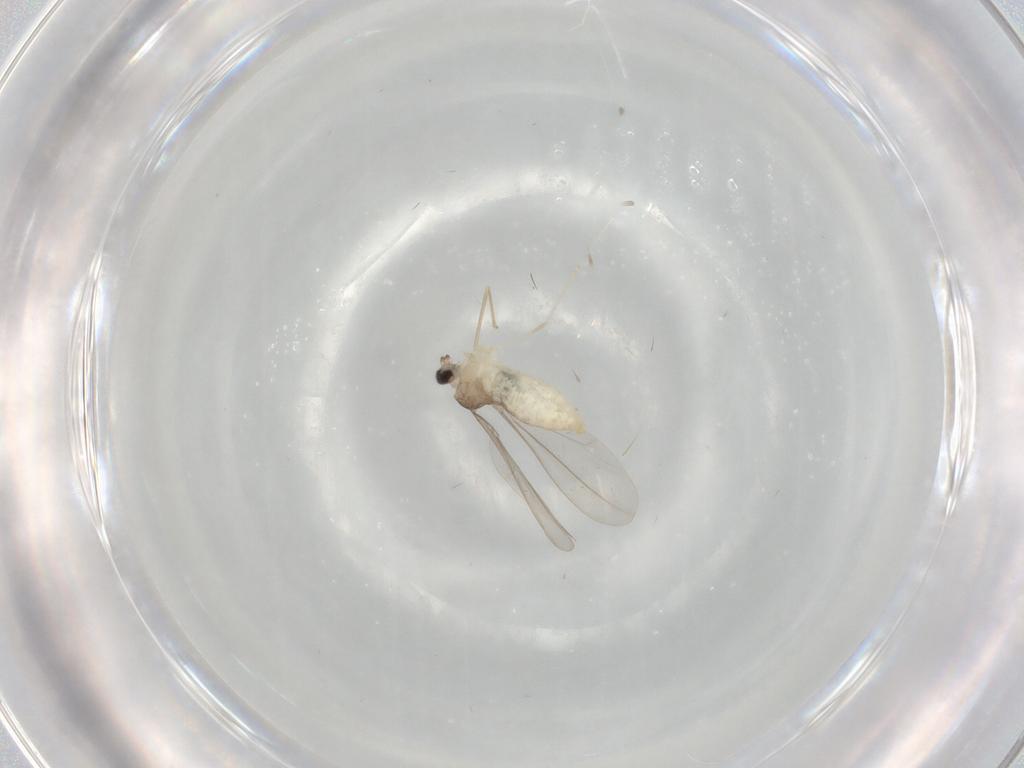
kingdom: Animalia
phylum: Arthropoda
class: Insecta
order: Diptera
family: Cecidomyiidae
